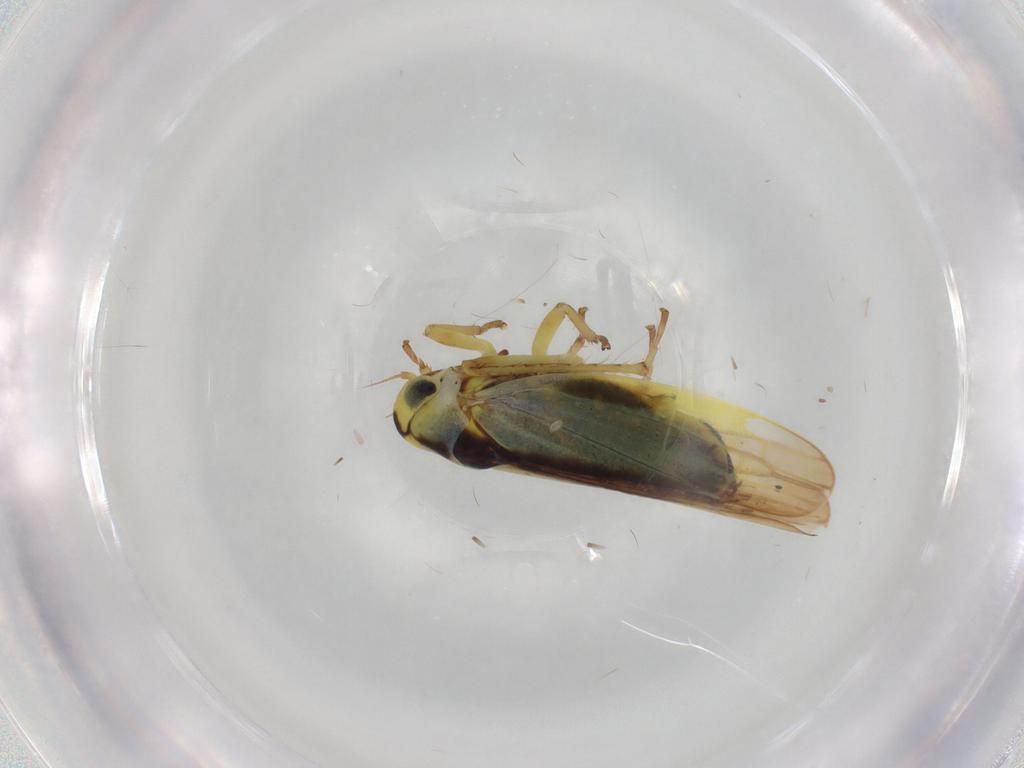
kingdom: Animalia
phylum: Arthropoda
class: Insecta
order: Hemiptera
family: Cicadellidae
